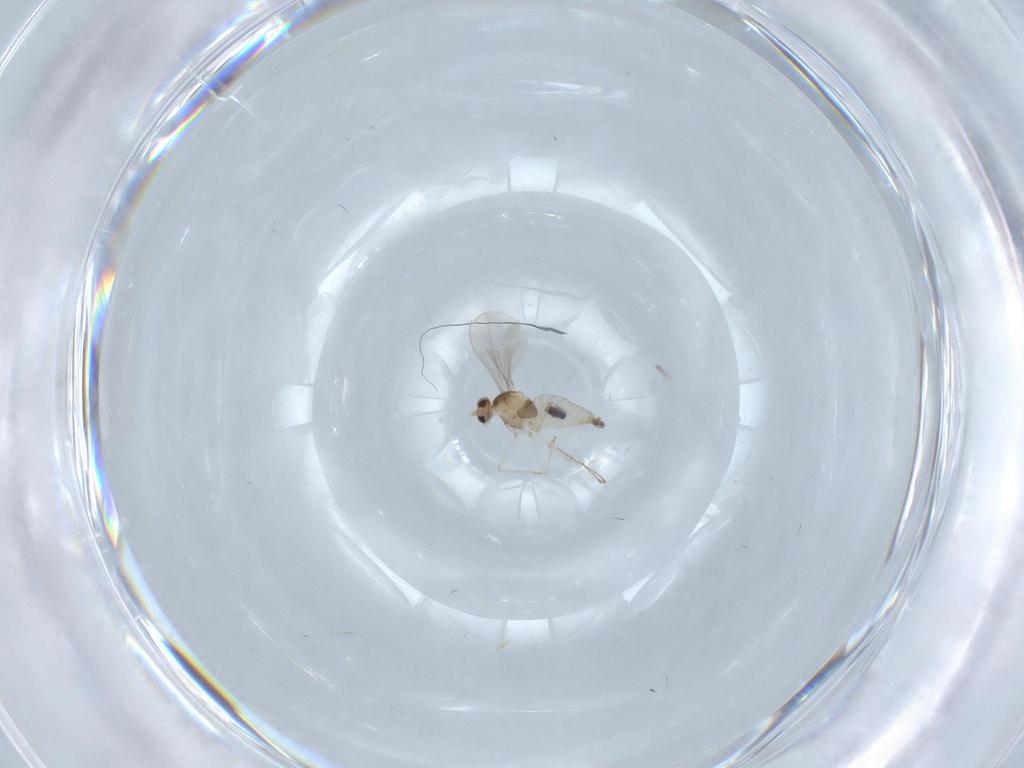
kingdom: Animalia
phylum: Arthropoda
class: Insecta
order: Diptera
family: Cecidomyiidae
